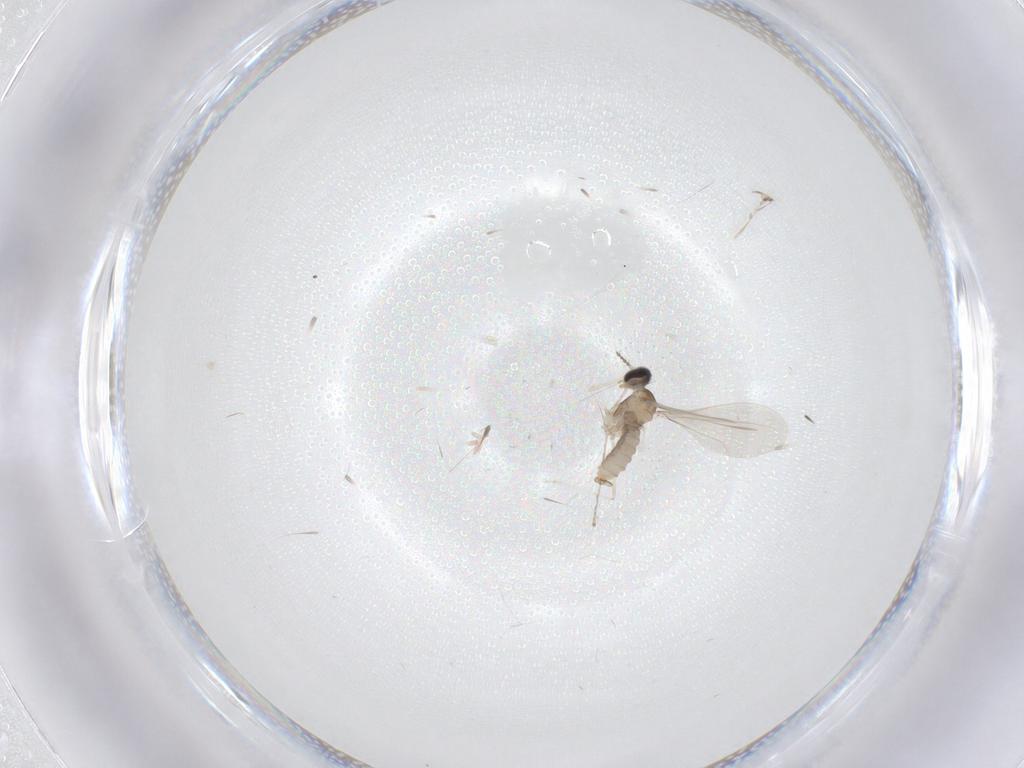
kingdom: Animalia
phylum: Arthropoda
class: Insecta
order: Diptera
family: Cecidomyiidae
